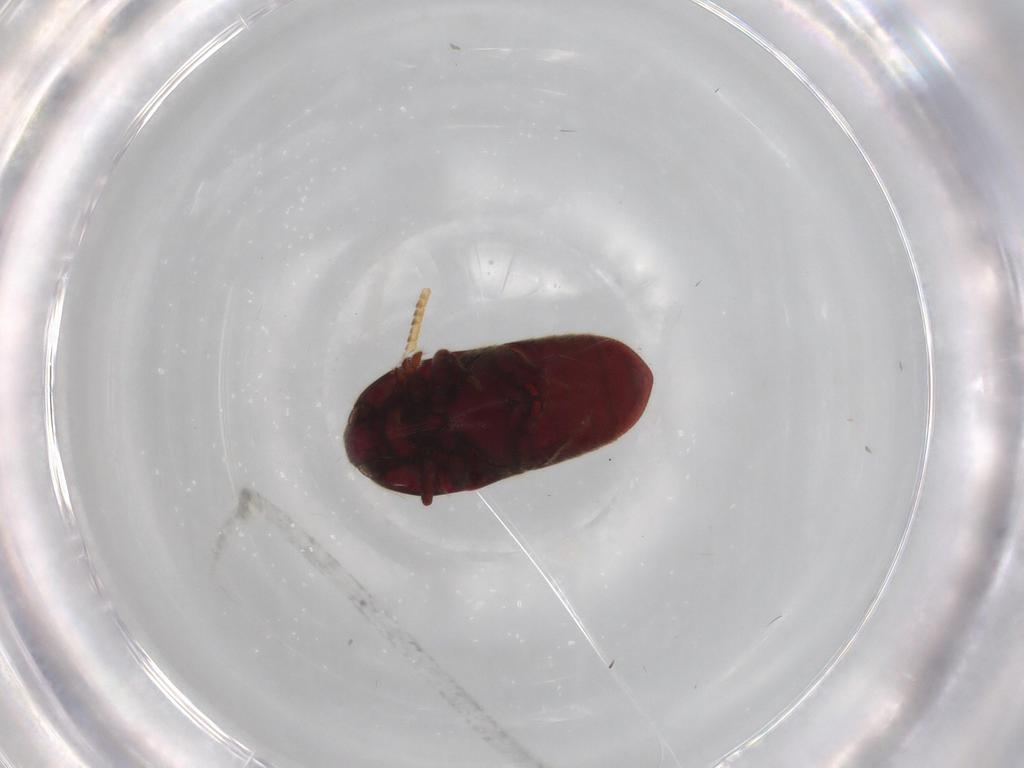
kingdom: Animalia
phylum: Arthropoda
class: Insecta
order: Coleoptera
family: Throscidae
